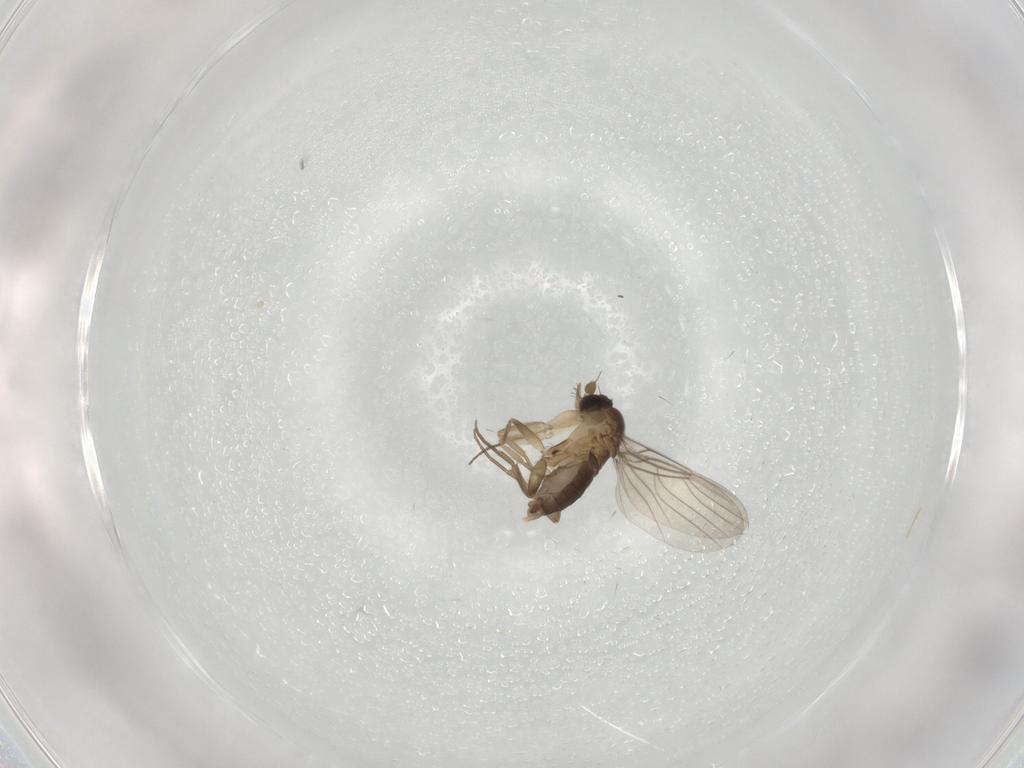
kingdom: Animalia
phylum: Arthropoda
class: Insecta
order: Diptera
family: Cecidomyiidae
